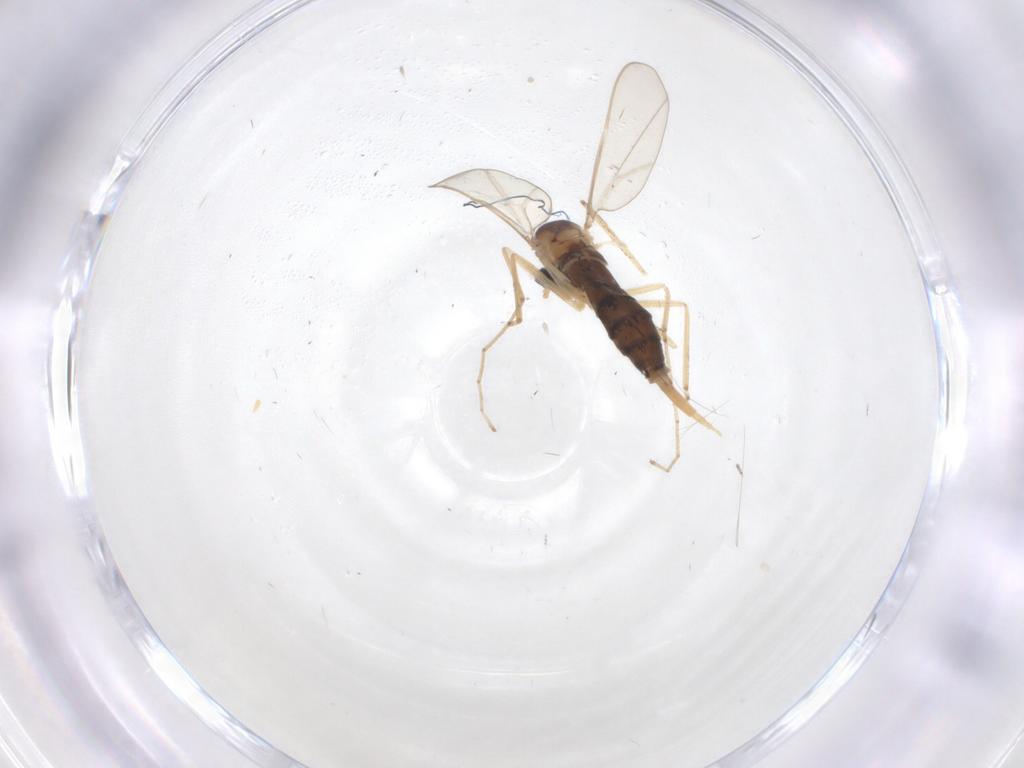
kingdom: Animalia
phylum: Arthropoda
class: Insecta
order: Diptera
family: Cecidomyiidae
